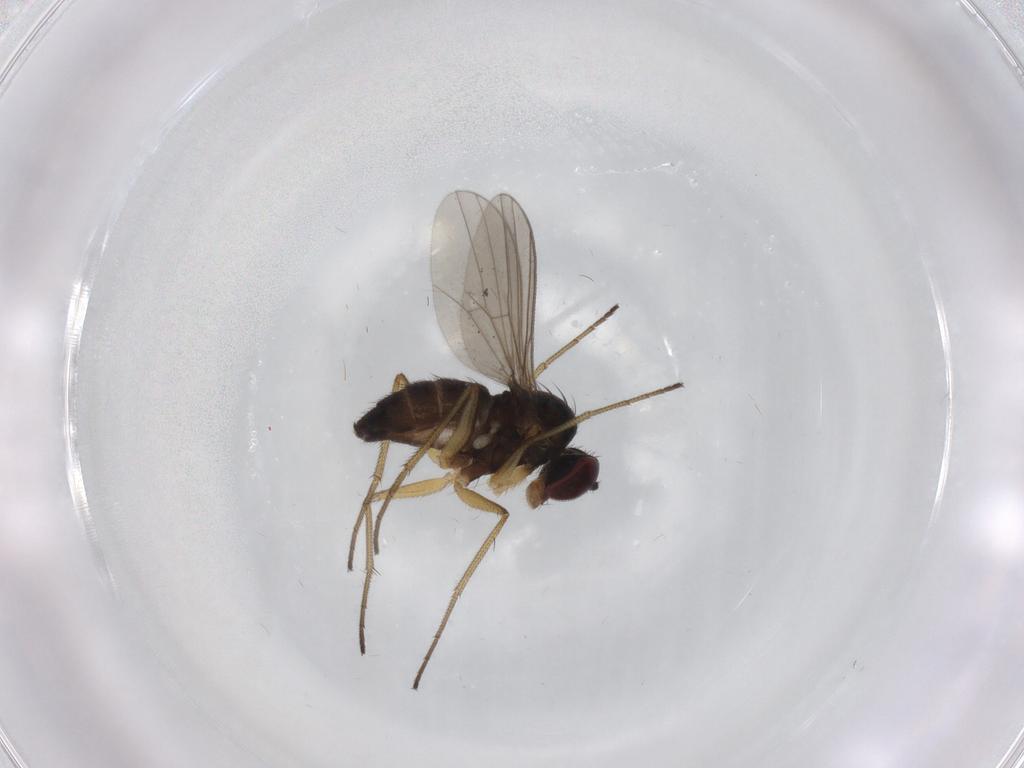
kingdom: Animalia
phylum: Arthropoda
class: Insecta
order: Diptera
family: Dolichopodidae
